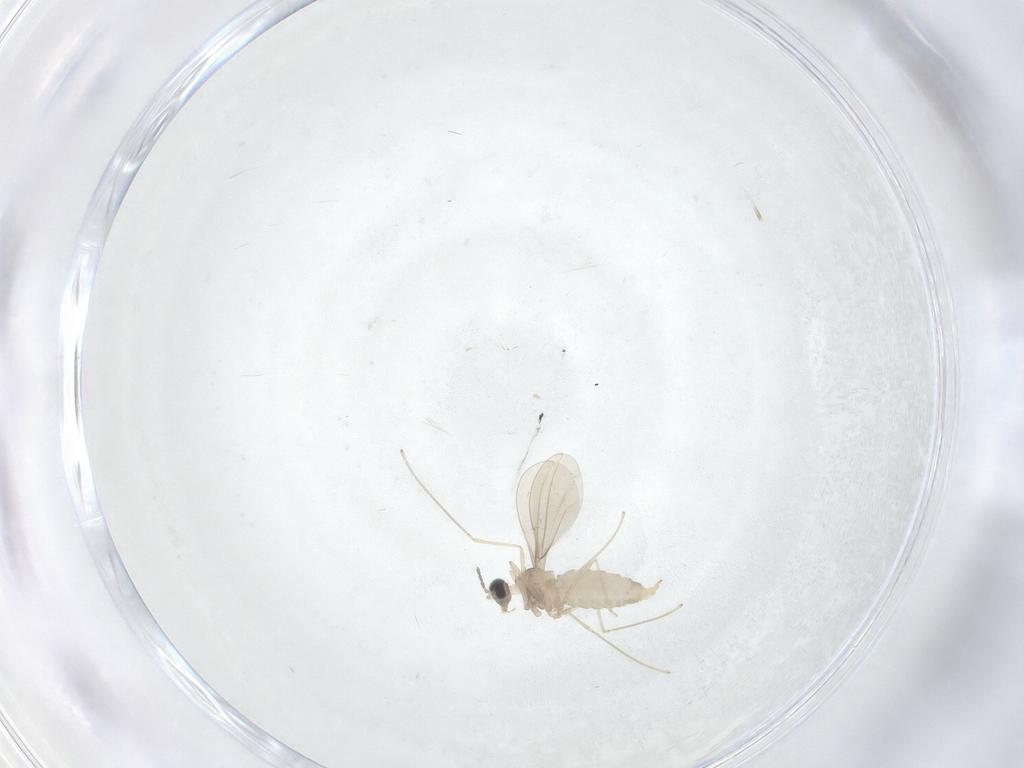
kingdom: Animalia
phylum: Arthropoda
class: Insecta
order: Diptera
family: Cecidomyiidae
